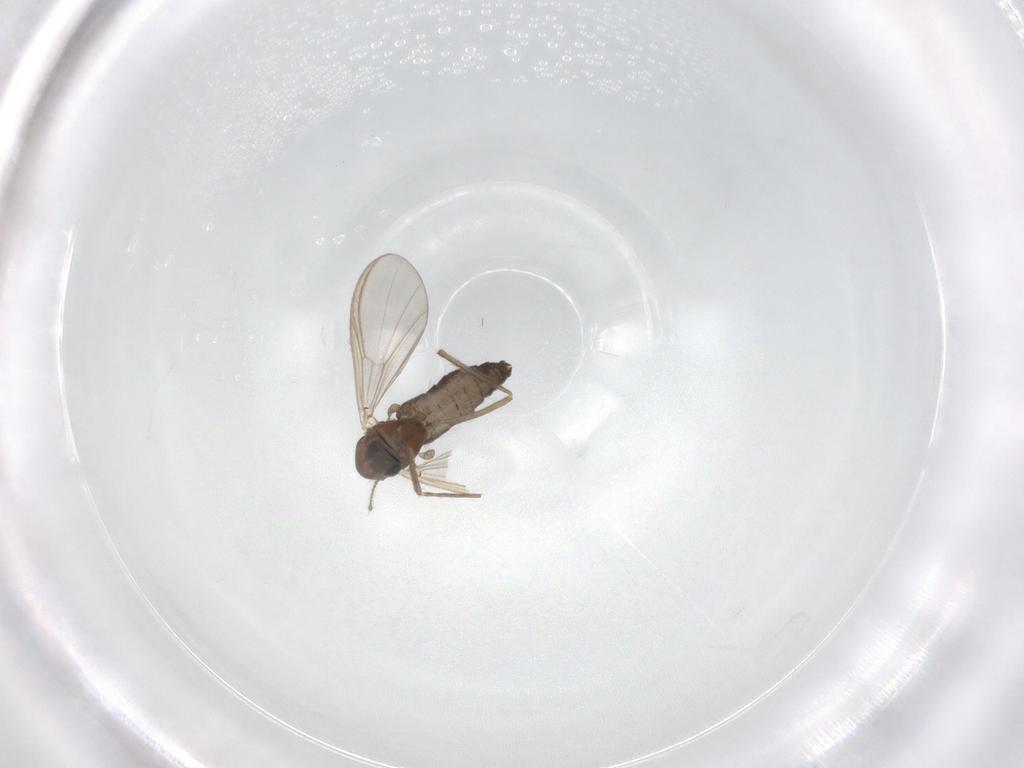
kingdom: Animalia
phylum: Arthropoda
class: Insecta
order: Diptera
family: Chironomidae
